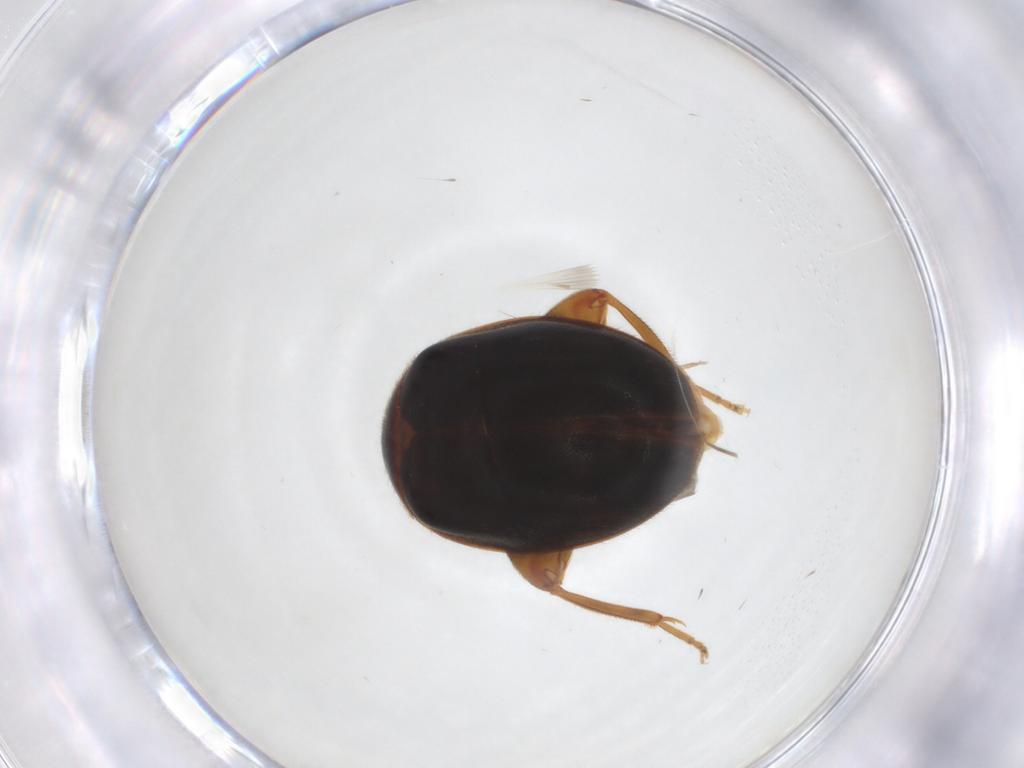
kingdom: Animalia
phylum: Arthropoda
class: Insecta
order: Coleoptera
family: Scirtidae
